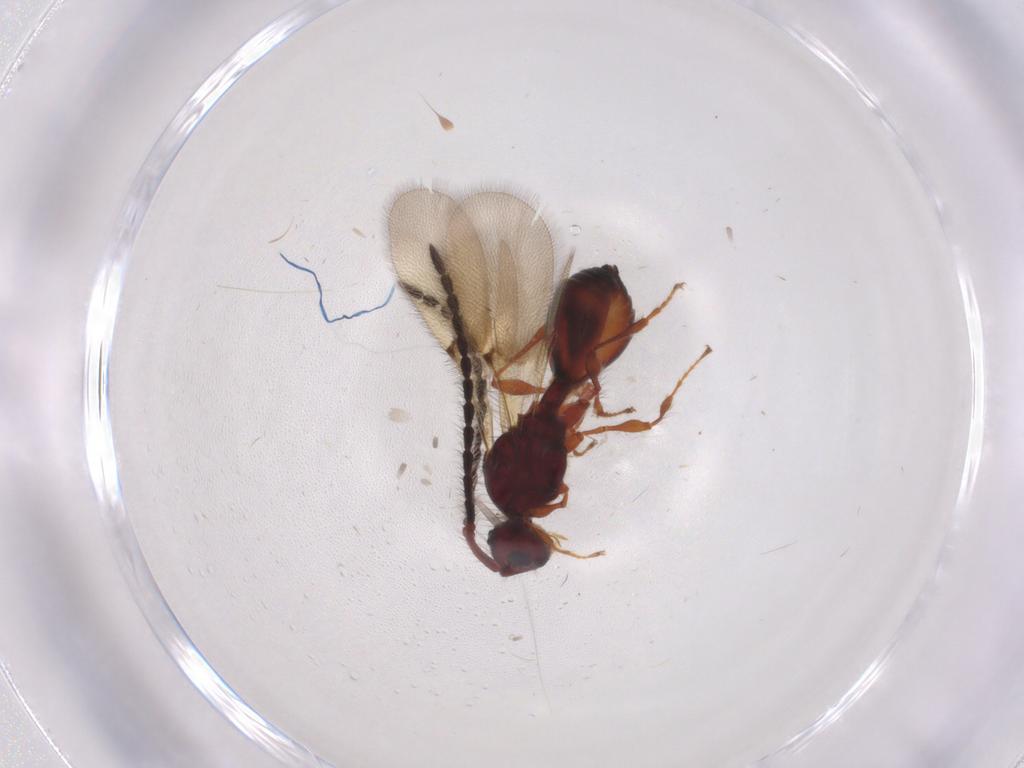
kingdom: Animalia
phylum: Arthropoda
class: Insecta
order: Hymenoptera
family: Diapriidae
